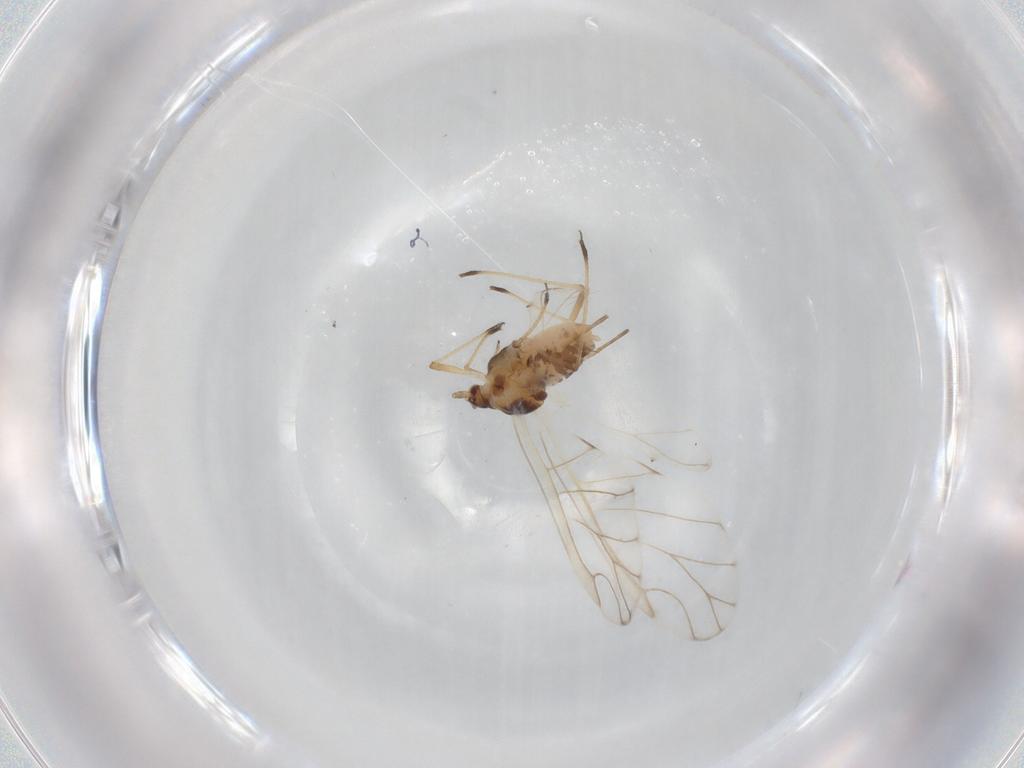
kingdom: Animalia
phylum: Arthropoda
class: Insecta
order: Hemiptera
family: Aphididae
